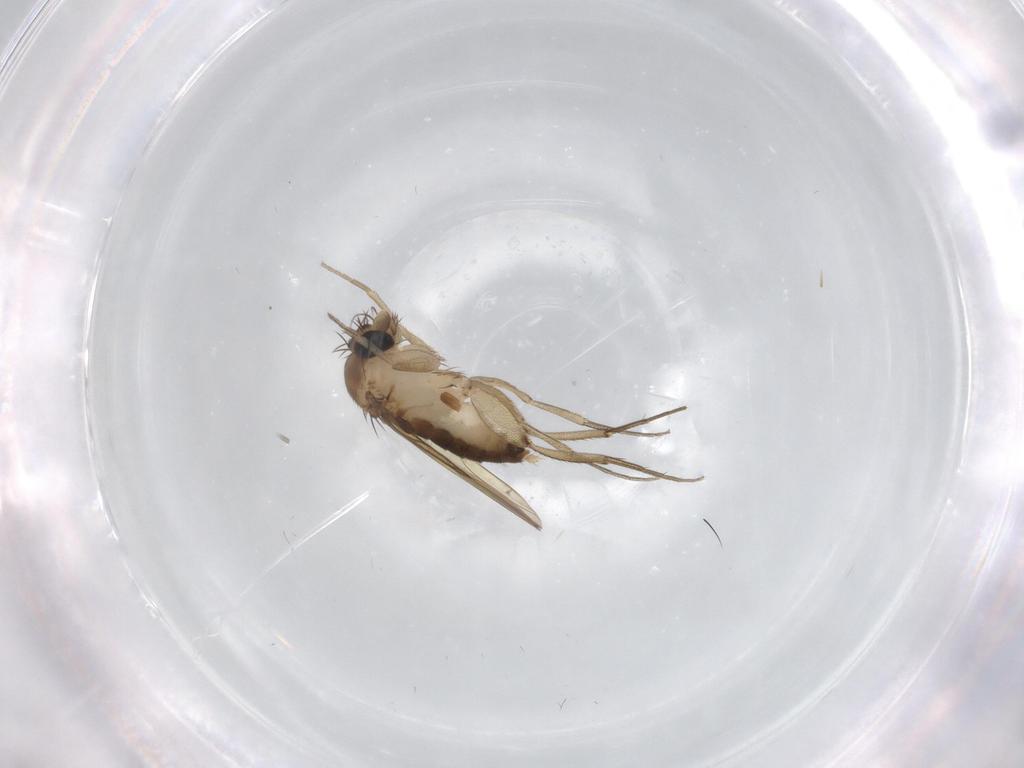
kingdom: Animalia
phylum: Arthropoda
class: Insecta
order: Diptera
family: Phoridae
